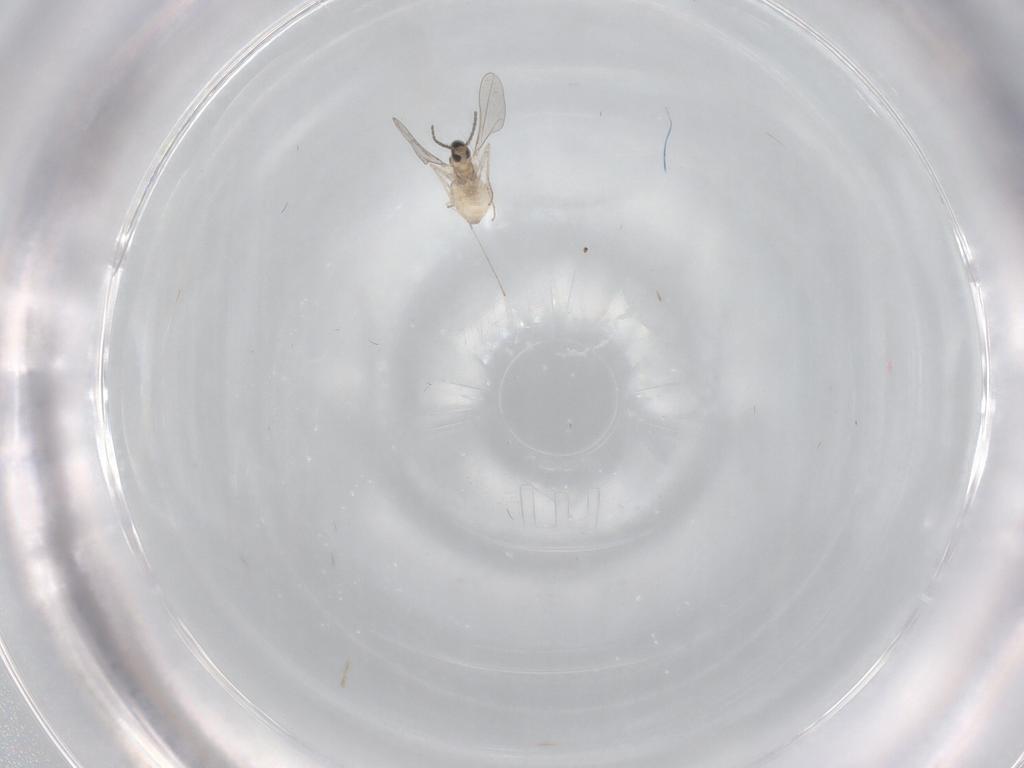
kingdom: Animalia
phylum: Arthropoda
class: Insecta
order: Diptera
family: Cecidomyiidae
